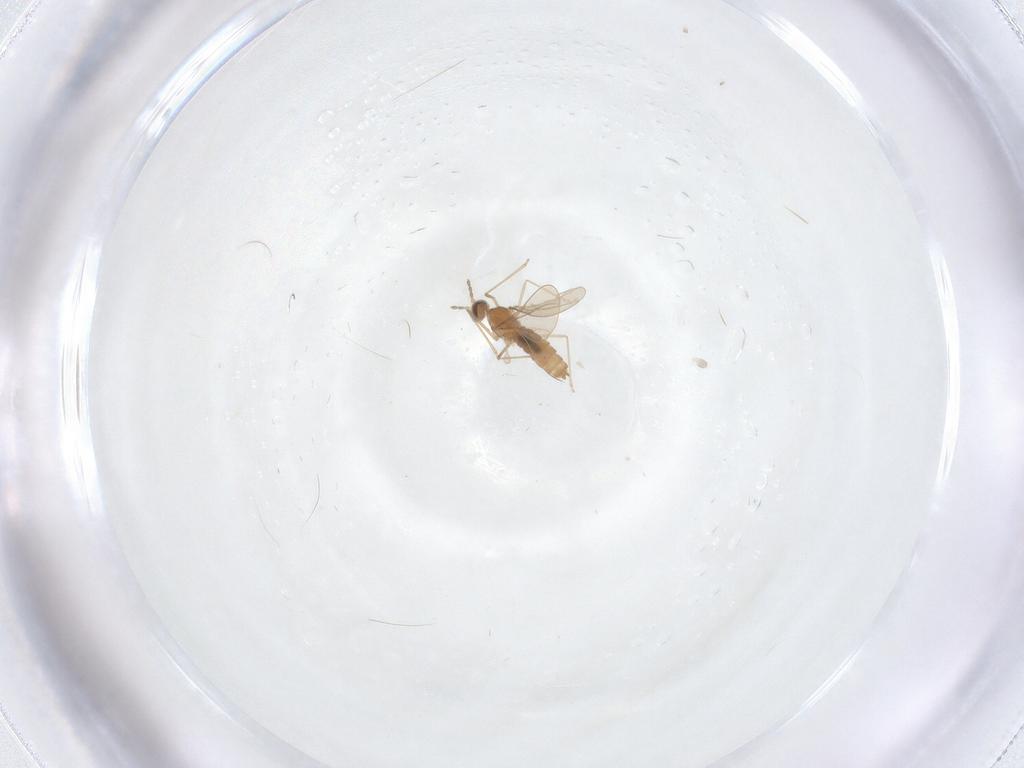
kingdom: Animalia
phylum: Arthropoda
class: Insecta
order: Diptera
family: Cecidomyiidae
